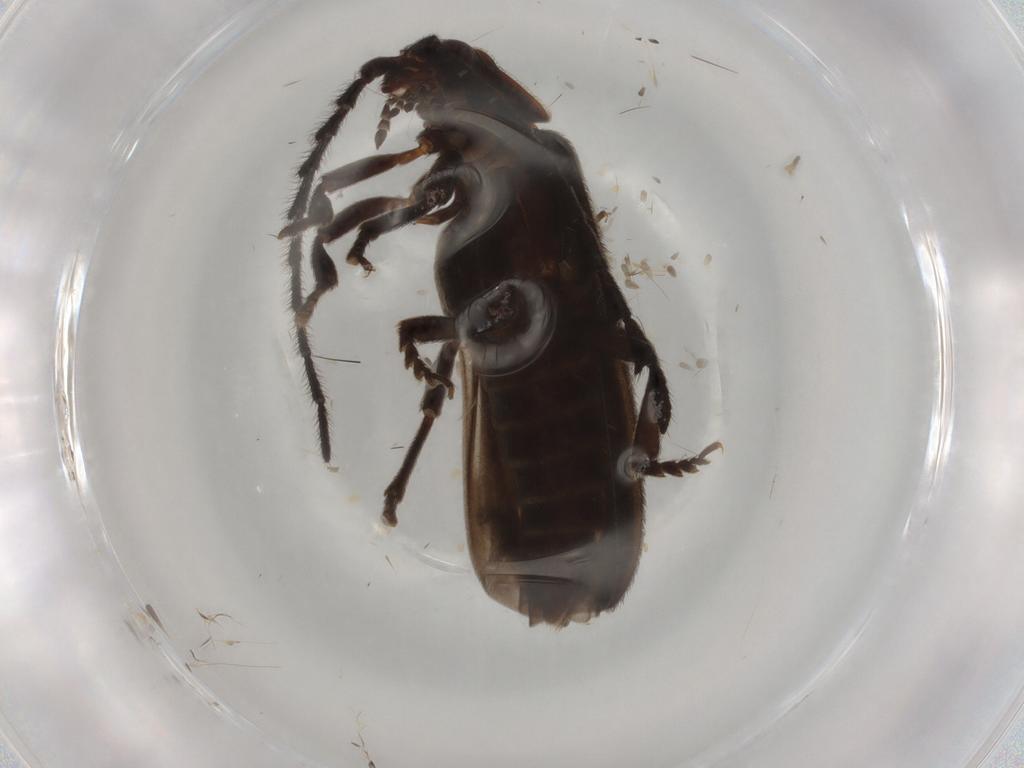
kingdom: Animalia
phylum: Arthropoda
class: Insecta
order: Coleoptera
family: Lycidae
